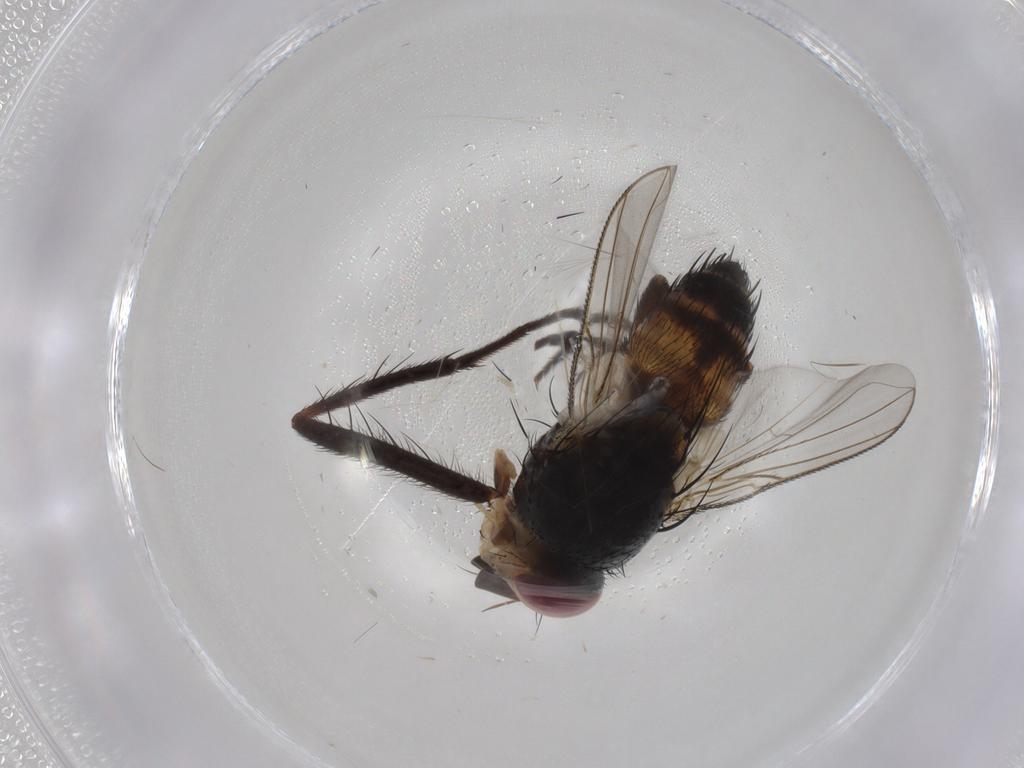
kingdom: Animalia
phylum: Arthropoda
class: Insecta
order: Diptera
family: Anthomyiidae
